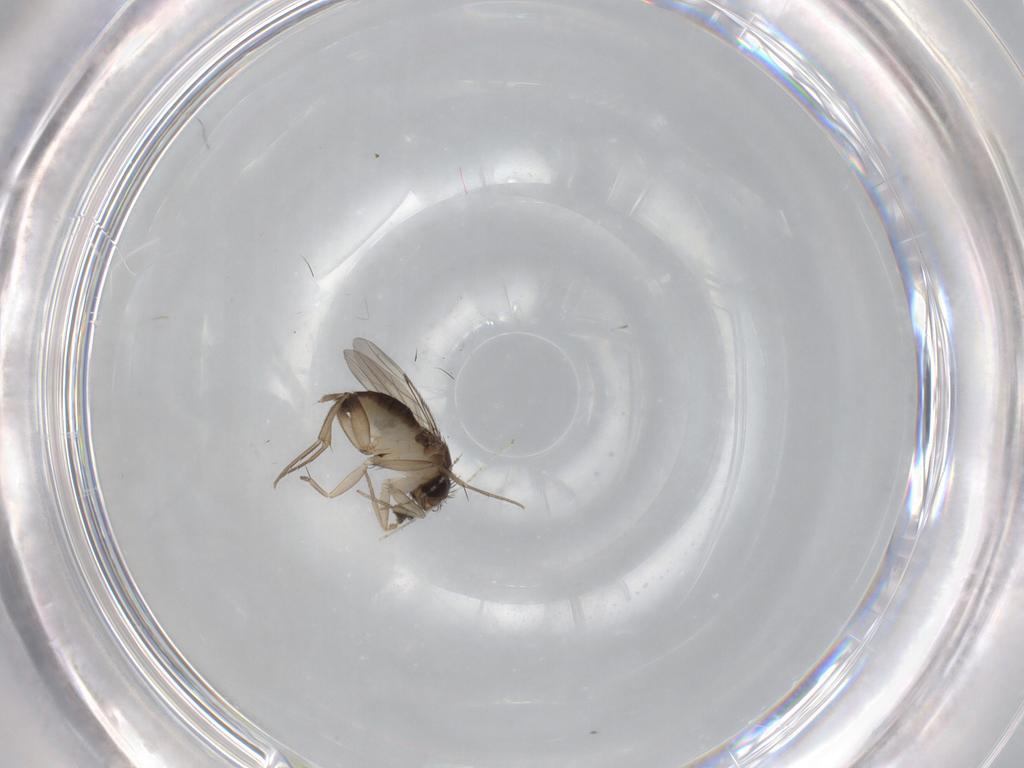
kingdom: Animalia
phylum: Arthropoda
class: Insecta
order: Diptera
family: Phoridae
